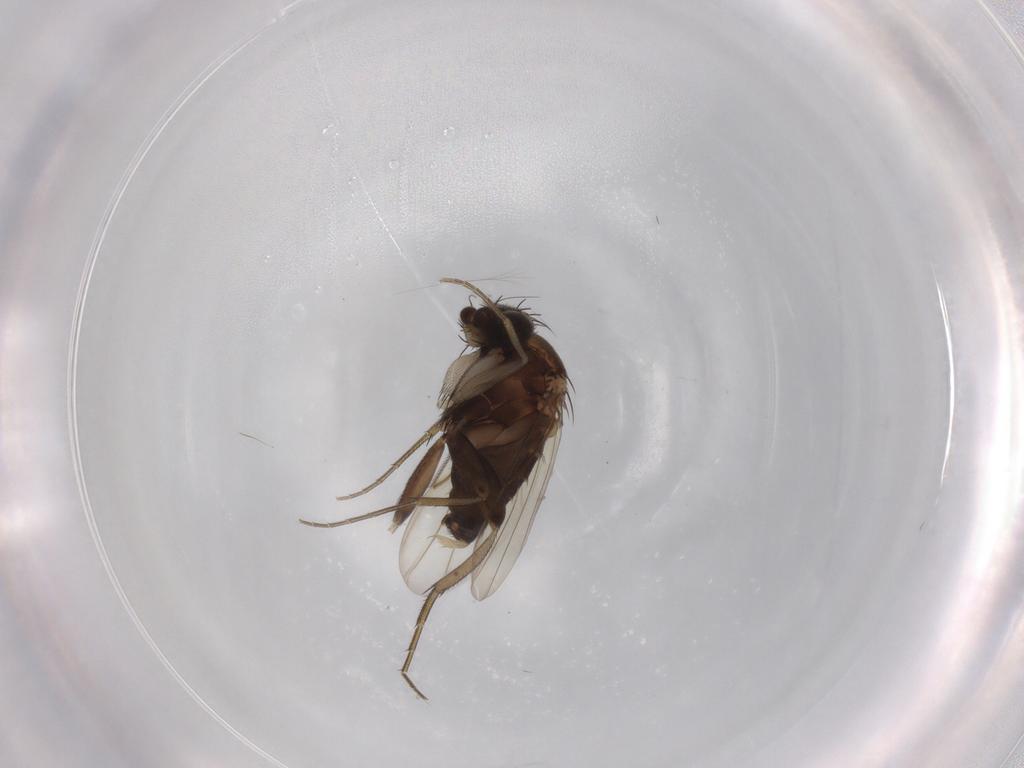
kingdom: Animalia
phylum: Arthropoda
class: Insecta
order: Diptera
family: Phoridae
